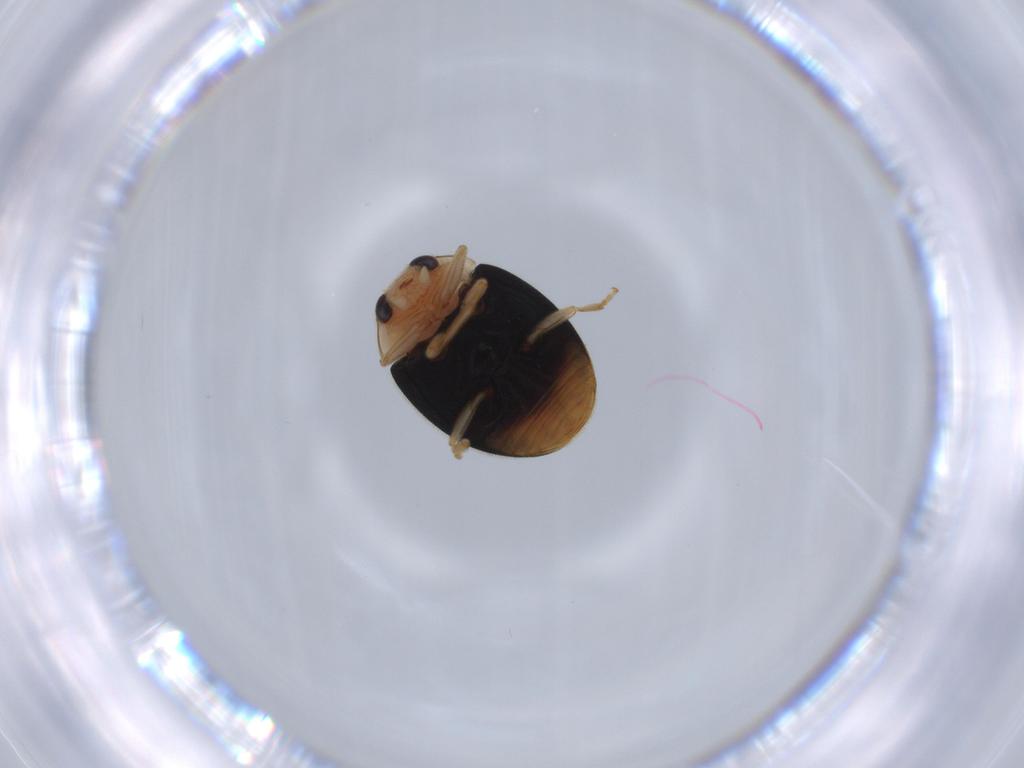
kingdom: Animalia
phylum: Arthropoda
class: Insecta
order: Coleoptera
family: Coccinellidae
